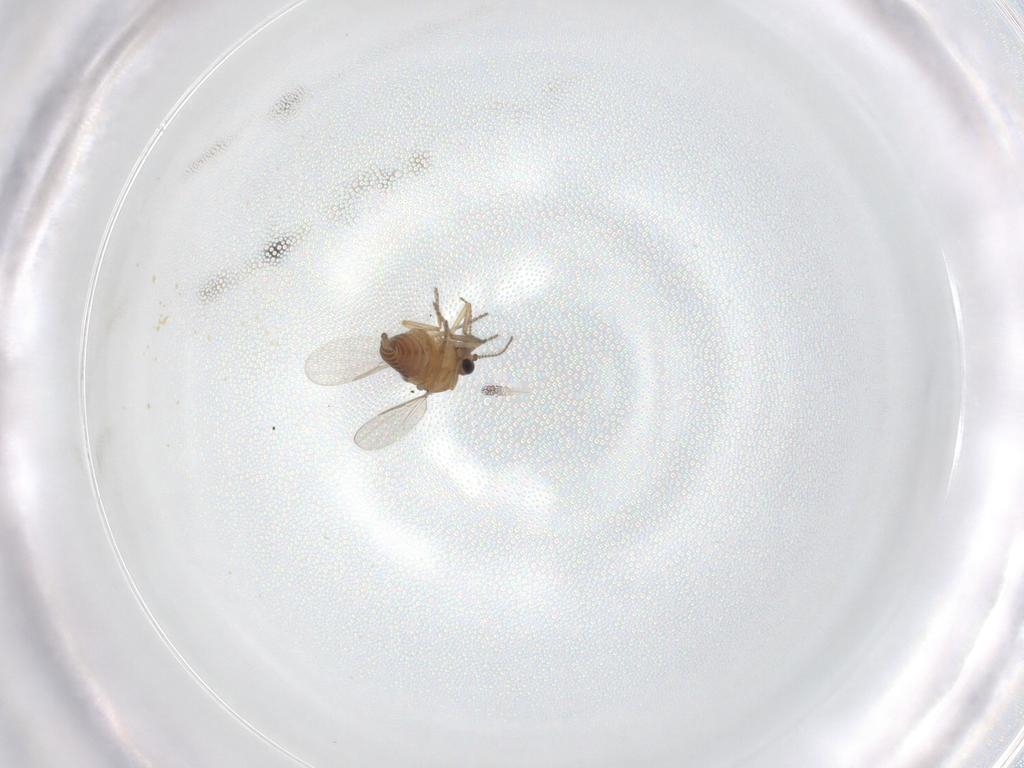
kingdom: Animalia
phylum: Arthropoda
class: Insecta
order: Diptera
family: Ceratopogonidae
